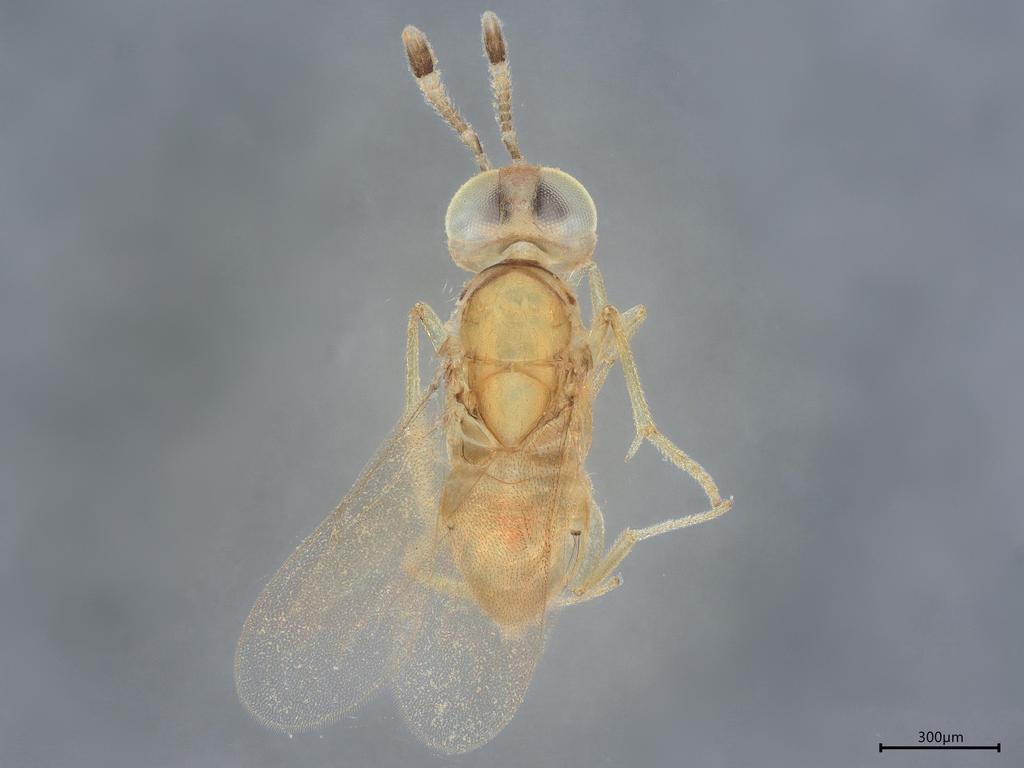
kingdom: Animalia
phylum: Arthropoda
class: Insecta
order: Hymenoptera
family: Encyrtidae
